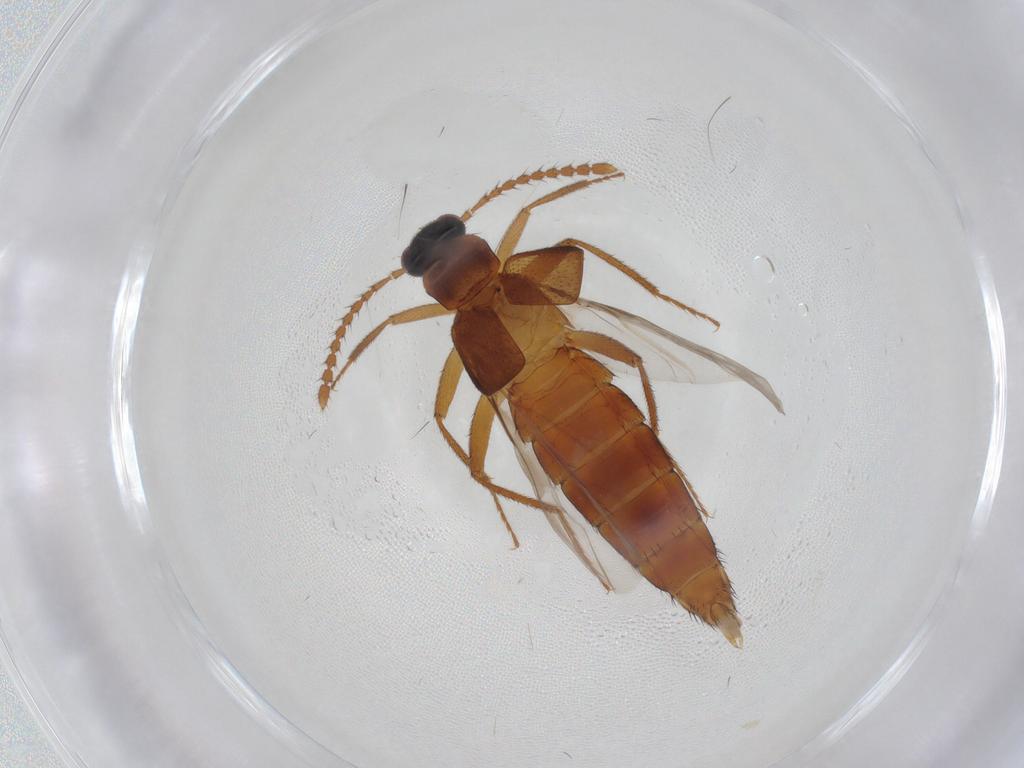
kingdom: Animalia
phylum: Arthropoda
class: Insecta
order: Coleoptera
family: Staphylinidae
